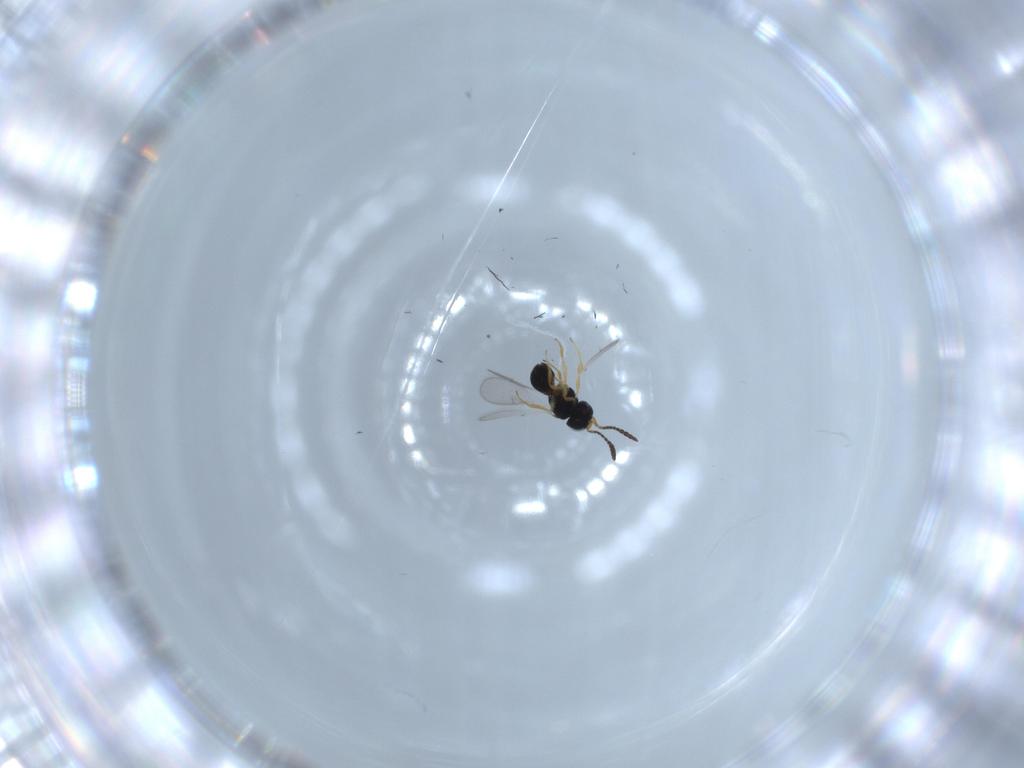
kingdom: Animalia
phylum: Arthropoda
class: Insecta
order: Hymenoptera
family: Scelionidae
